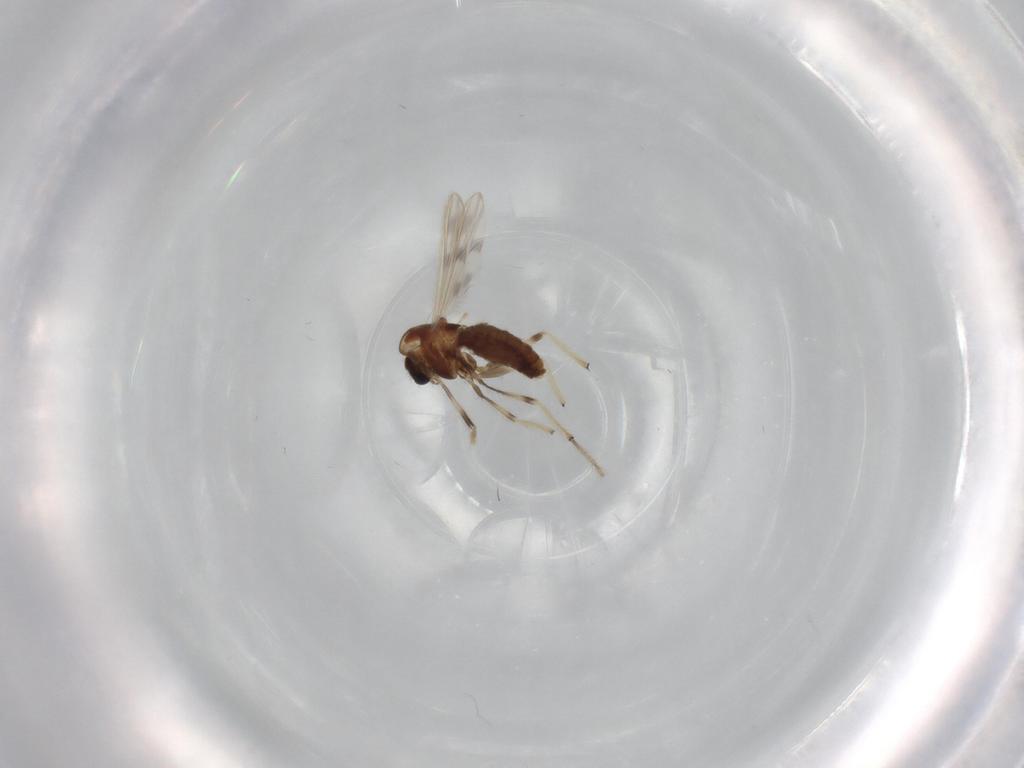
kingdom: Animalia
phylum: Arthropoda
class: Insecta
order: Diptera
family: Chironomidae
